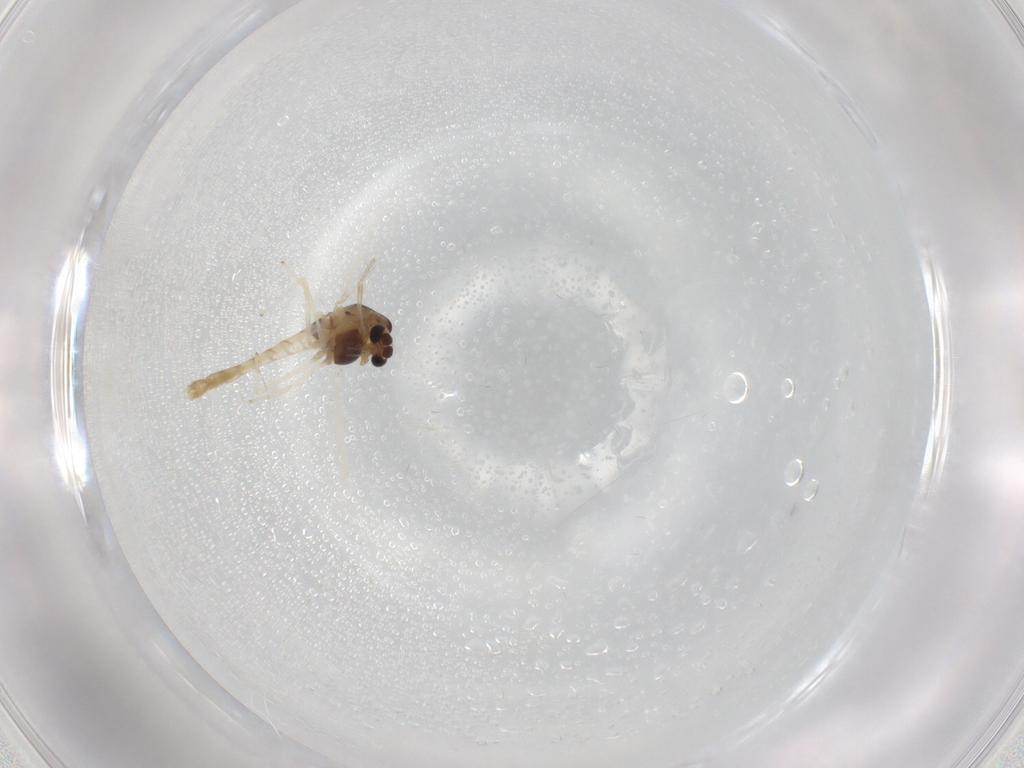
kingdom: Animalia
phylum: Arthropoda
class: Insecta
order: Diptera
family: Chironomidae
